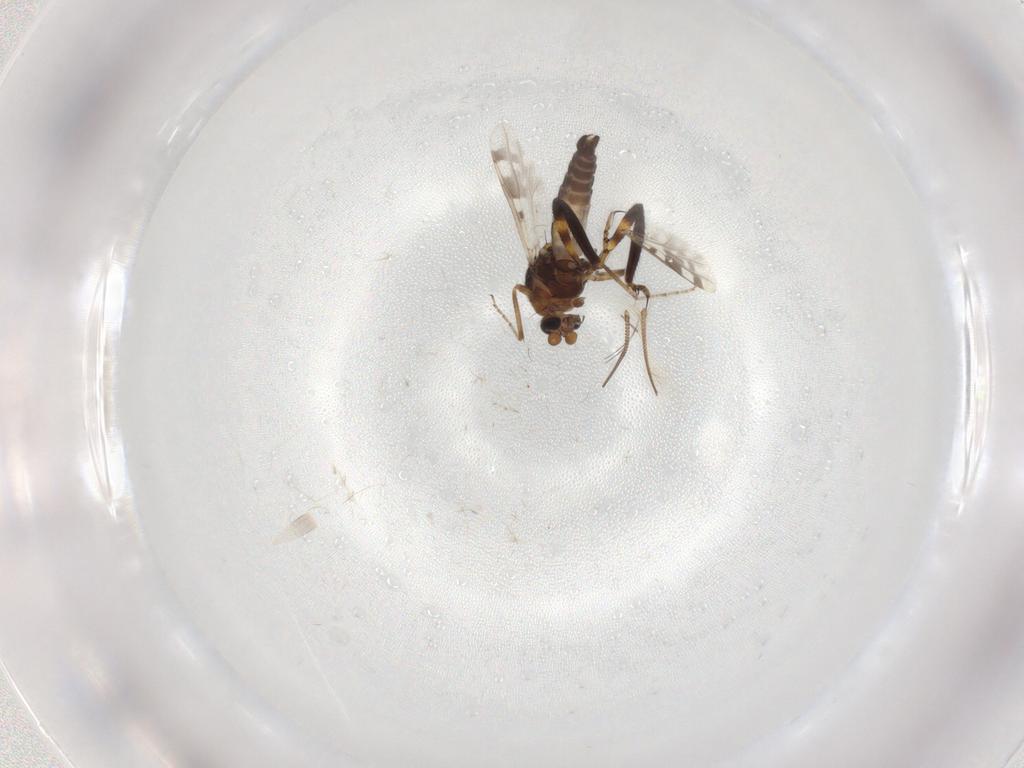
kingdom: Animalia
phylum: Arthropoda
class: Insecta
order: Diptera
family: Ceratopogonidae
